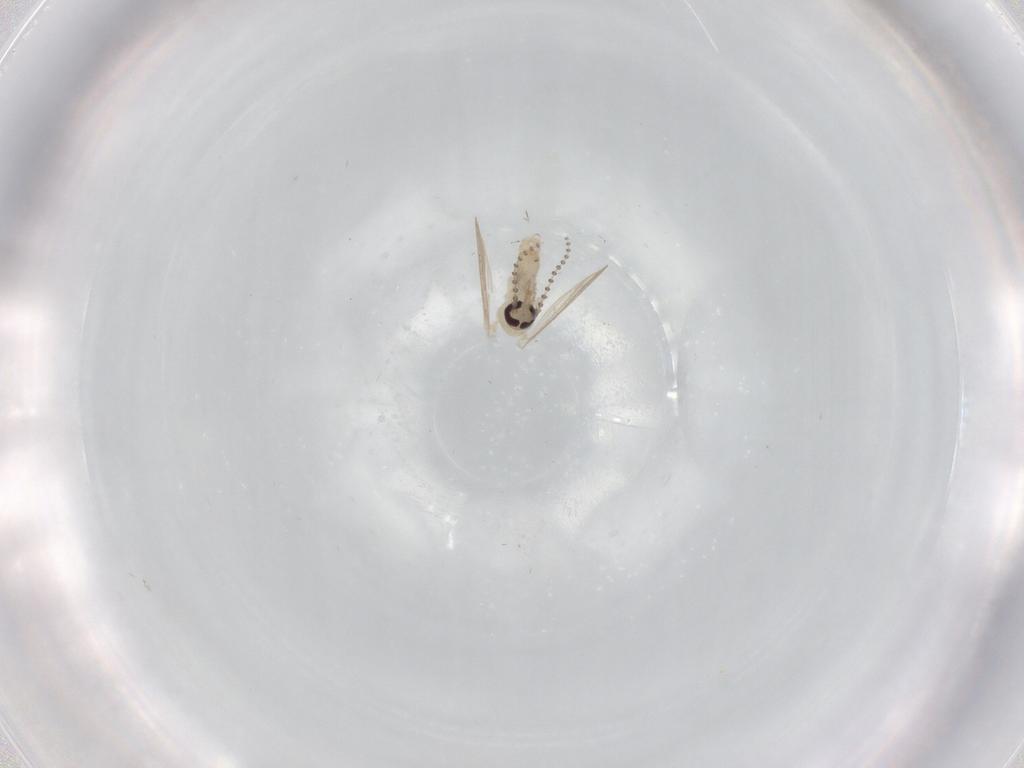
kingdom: Animalia
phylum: Arthropoda
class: Insecta
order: Diptera
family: Psychodidae
